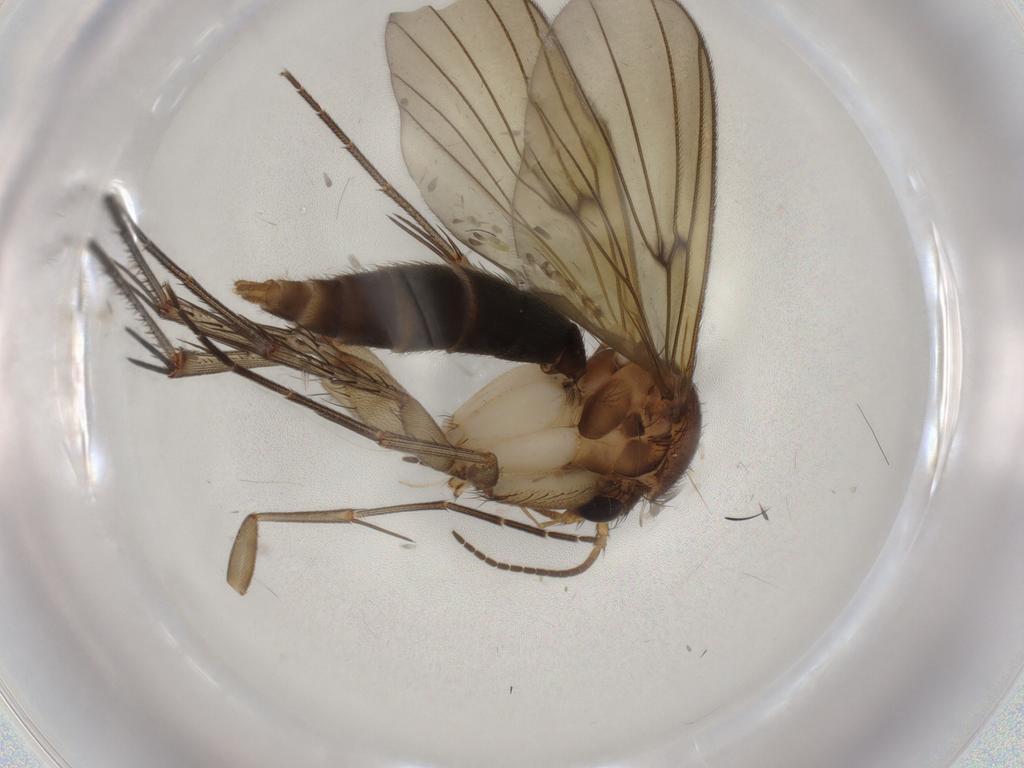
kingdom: Animalia
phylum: Arthropoda
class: Insecta
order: Diptera
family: Mycetophilidae
